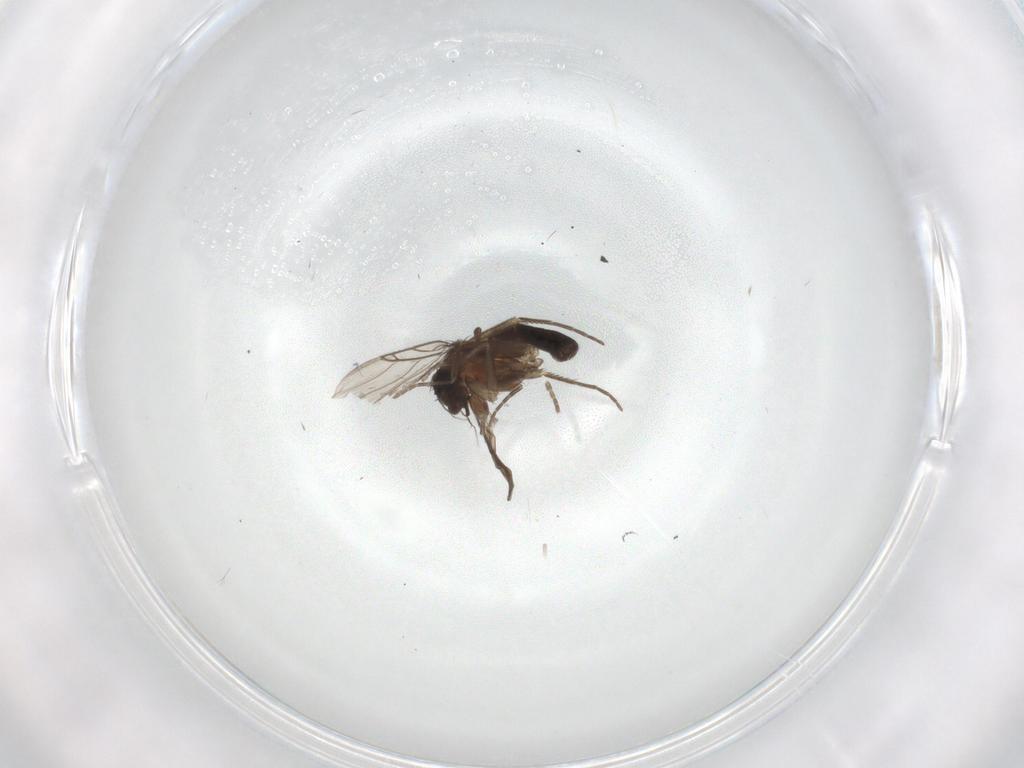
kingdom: Animalia
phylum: Arthropoda
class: Insecta
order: Diptera
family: Phoridae
